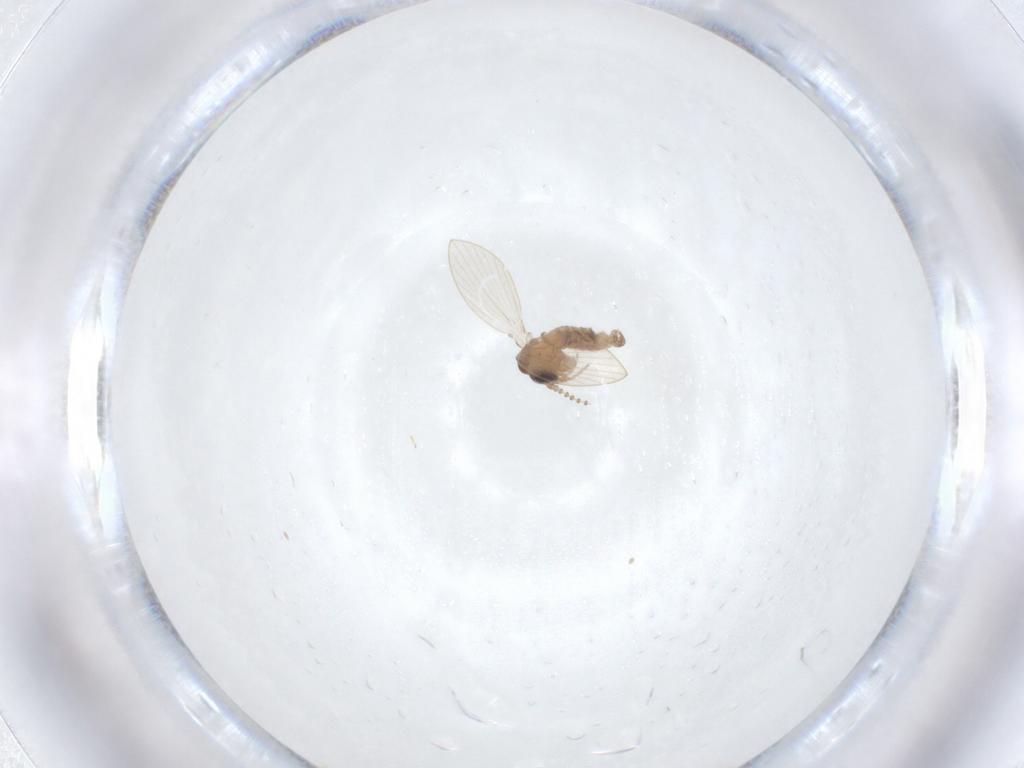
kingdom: Animalia
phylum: Arthropoda
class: Insecta
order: Diptera
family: Psychodidae
